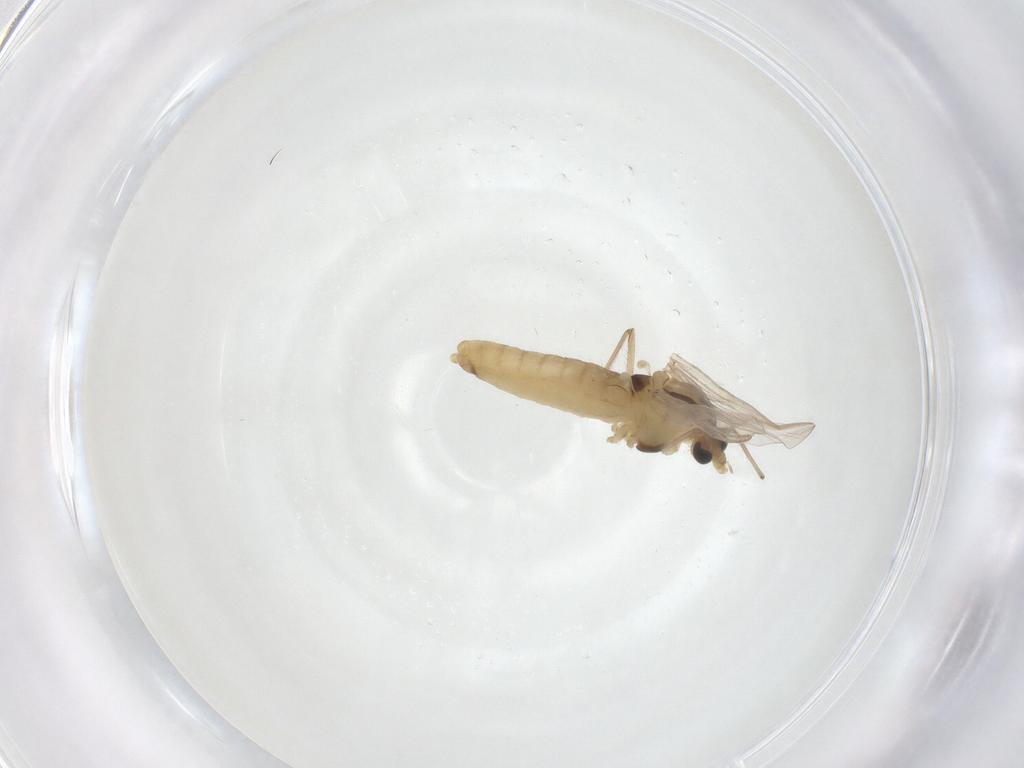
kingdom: Animalia
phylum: Arthropoda
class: Insecta
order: Diptera
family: Chironomidae
